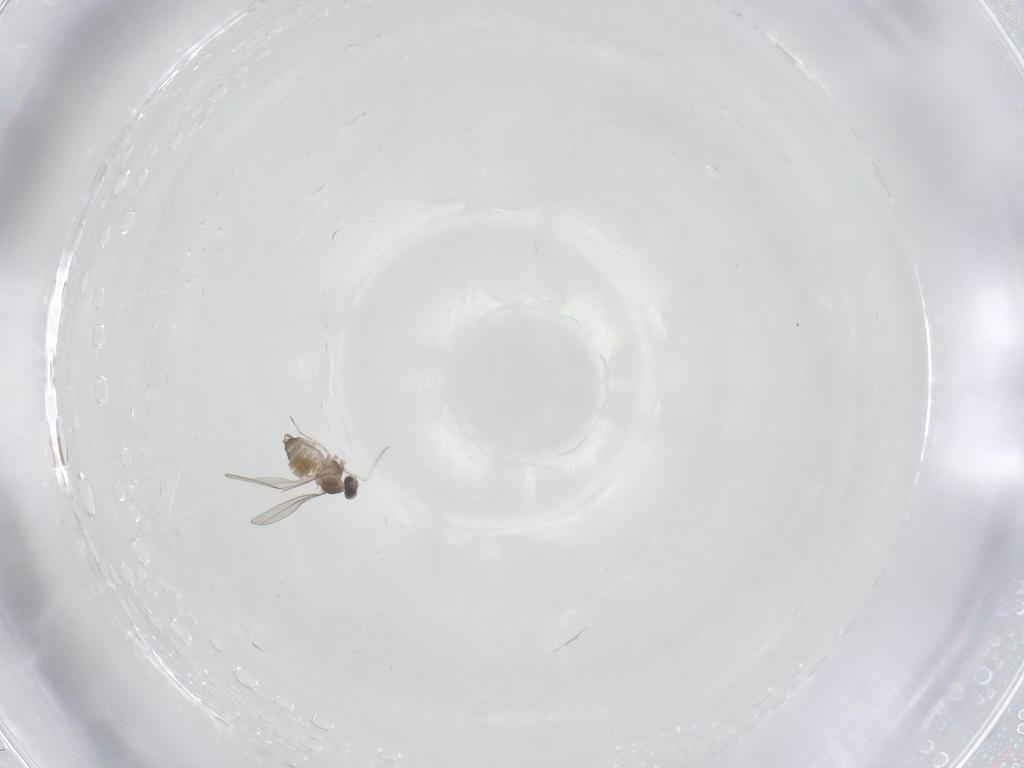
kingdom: Animalia
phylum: Arthropoda
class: Insecta
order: Diptera
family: Cecidomyiidae
